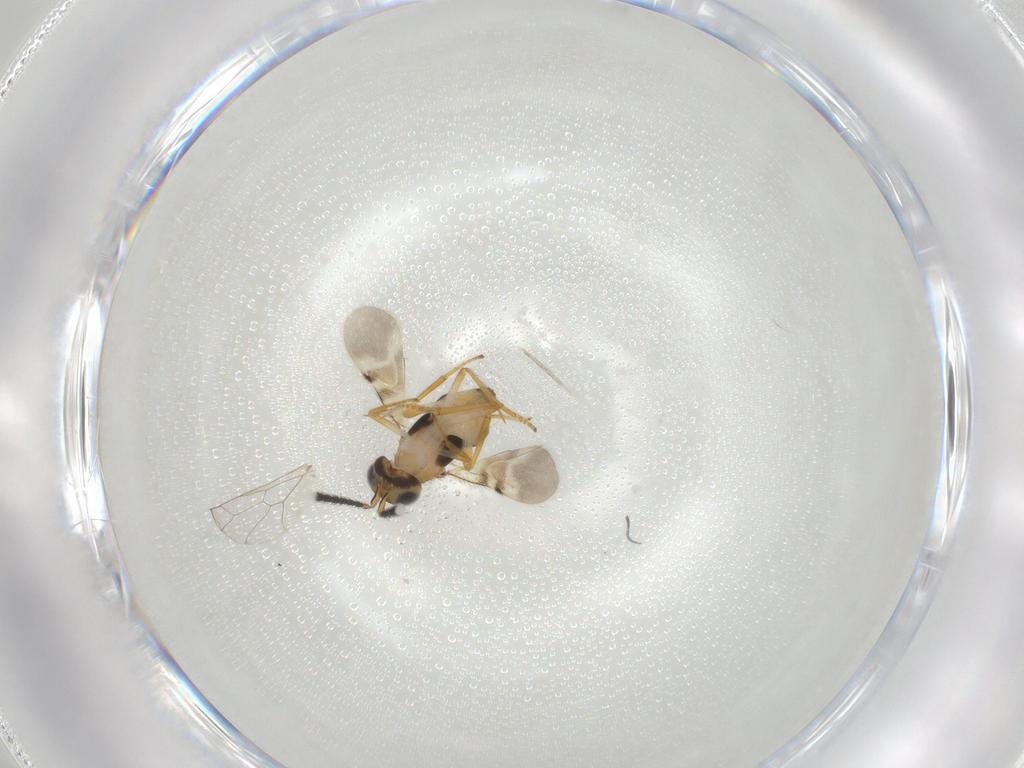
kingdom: Animalia
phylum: Arthropoda
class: Insecta
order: Hymenoptera
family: Encyrtidae
